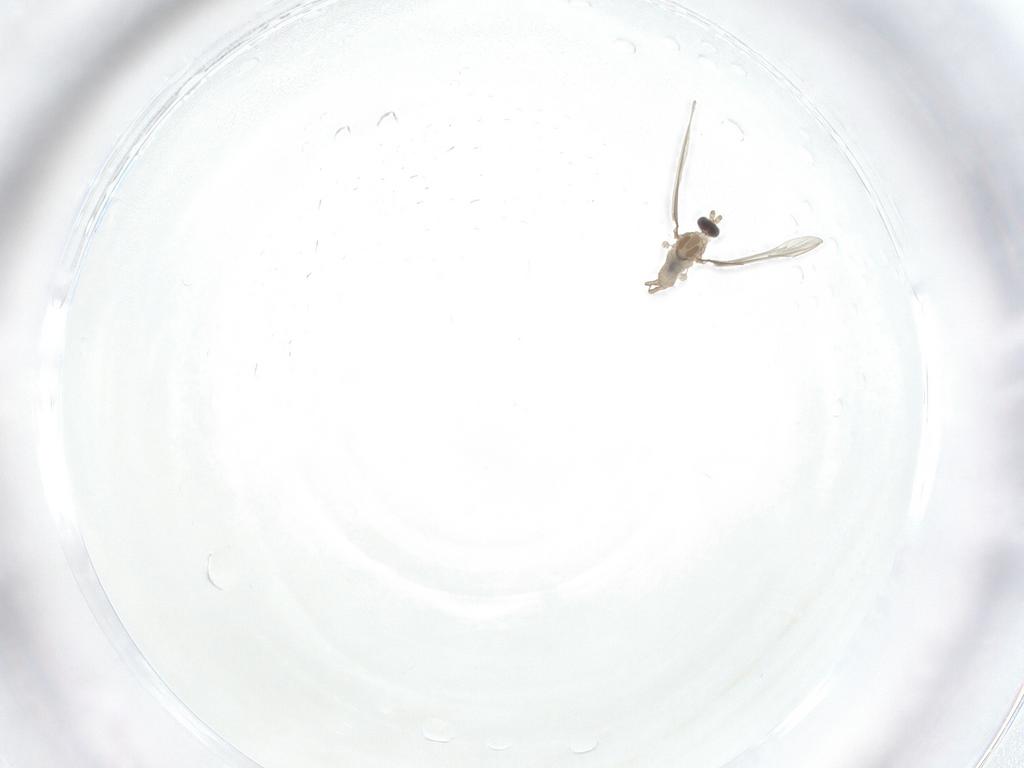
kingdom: Animalia
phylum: Arthropoda
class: Insecta
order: Diptera
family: Cecidomyiidae
